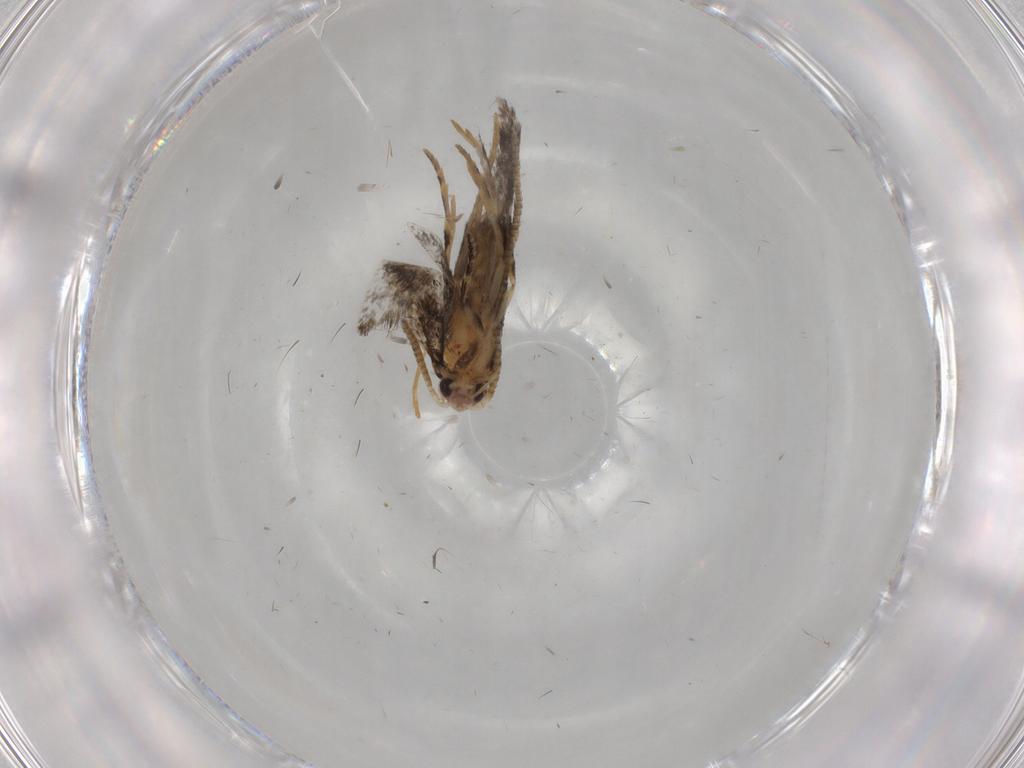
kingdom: Animalia
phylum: Arthropoda
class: Insecta
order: Lepidoptera
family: Tineidae
